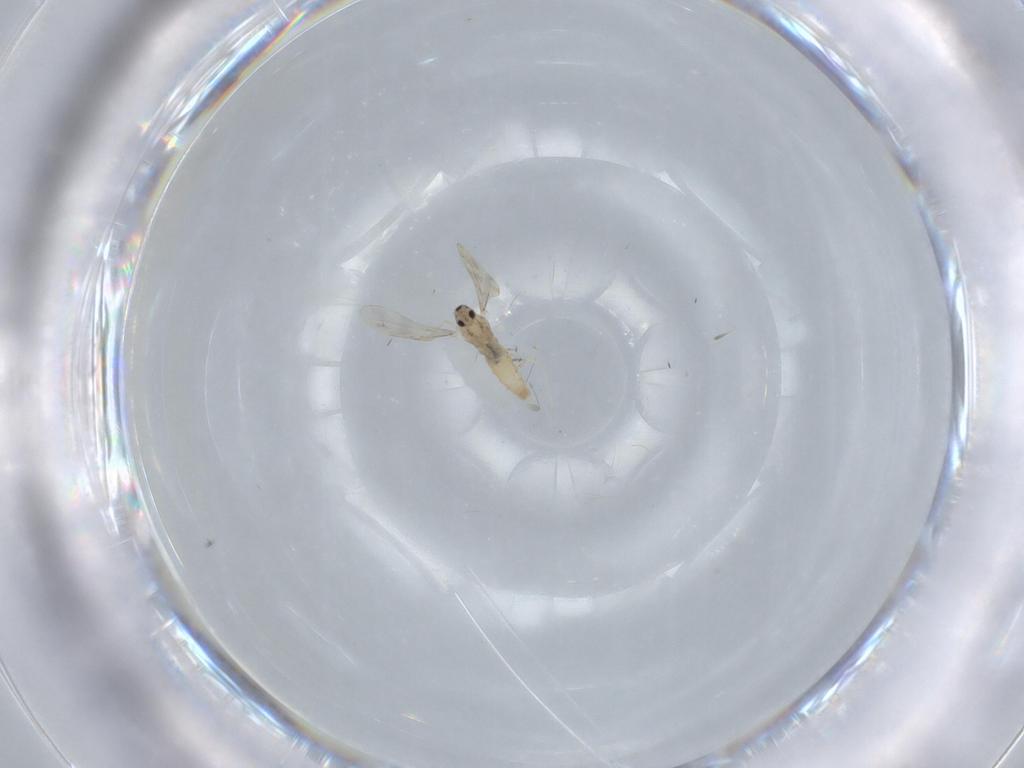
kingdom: Animalia
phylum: Arthropoda
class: Insecta
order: Diptera
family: Cecidomyiidae
